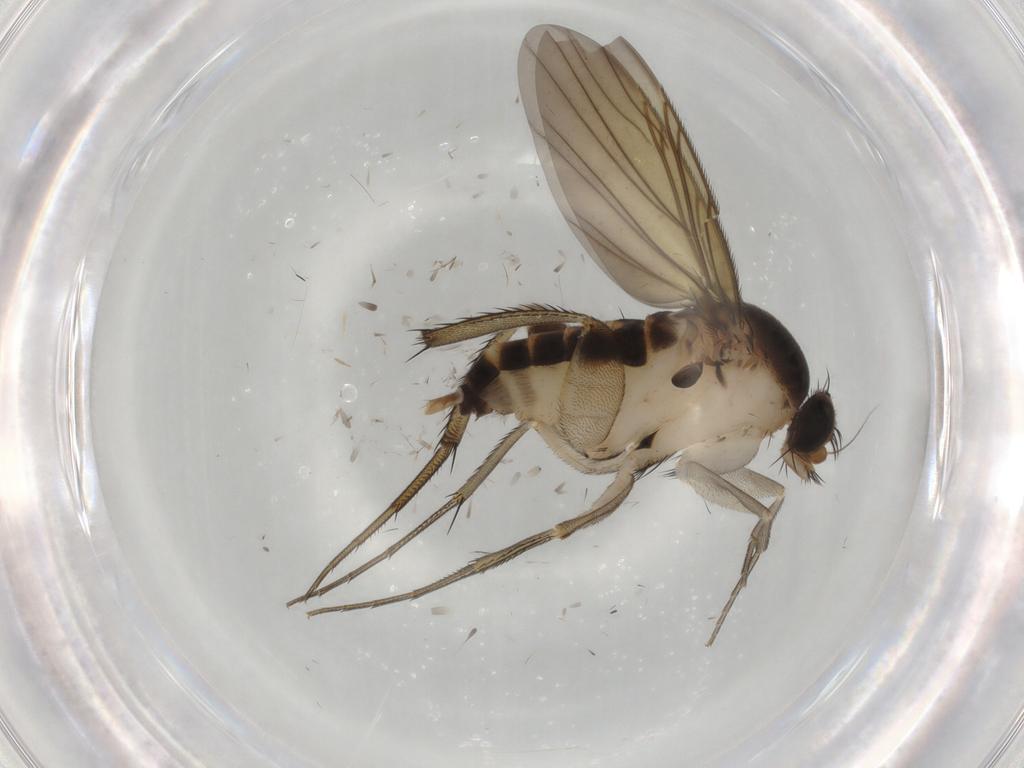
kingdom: Animalia
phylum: Arthropoda
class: Insecta
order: Diptera
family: Phoridae
